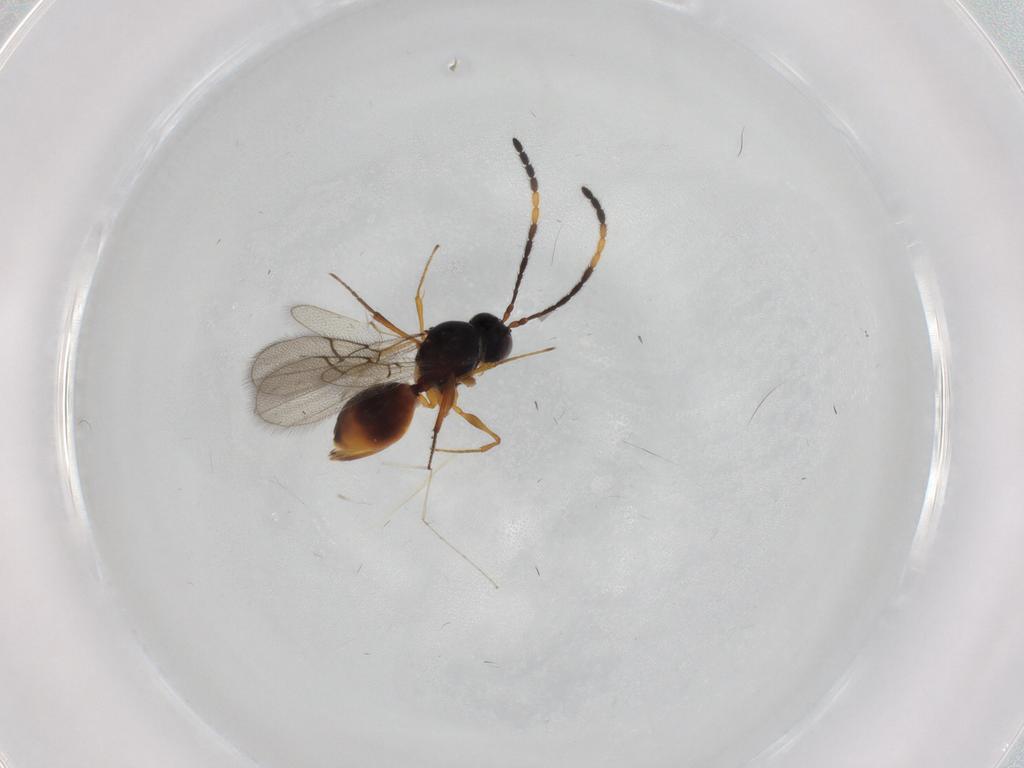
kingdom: Animalia
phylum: Arthropoda
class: Insecta
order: Hymenoptera
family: Figitidae
